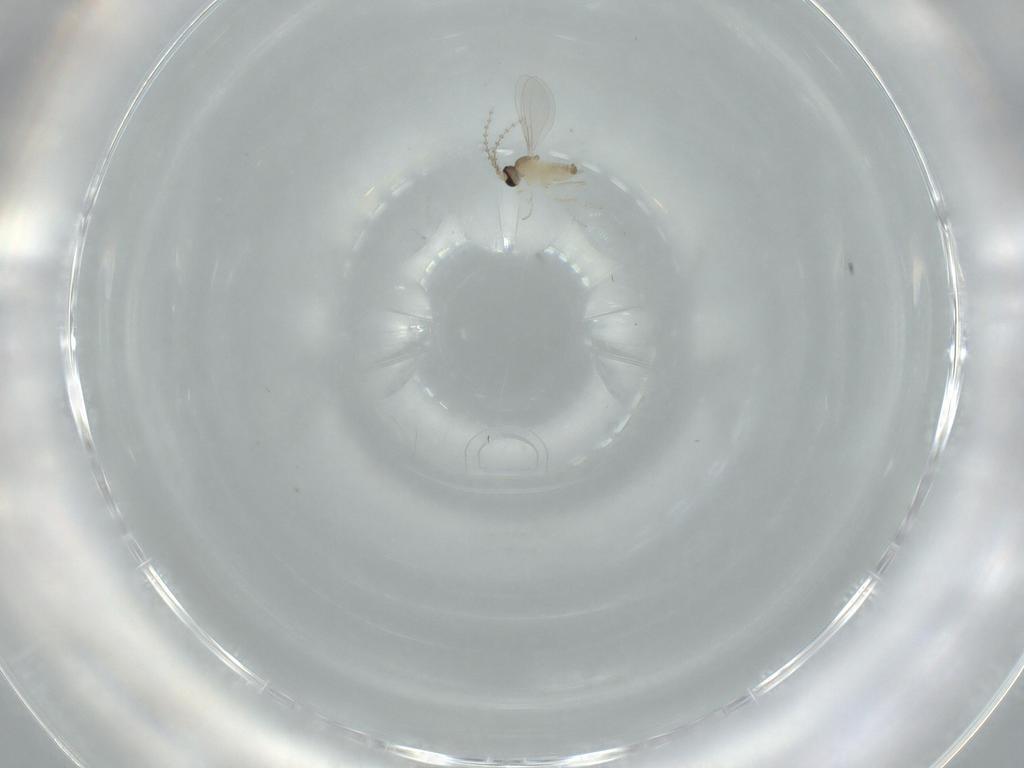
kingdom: Animalia
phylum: Arthropoda
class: Insecta
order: Diptera
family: Cecidomyiidae
